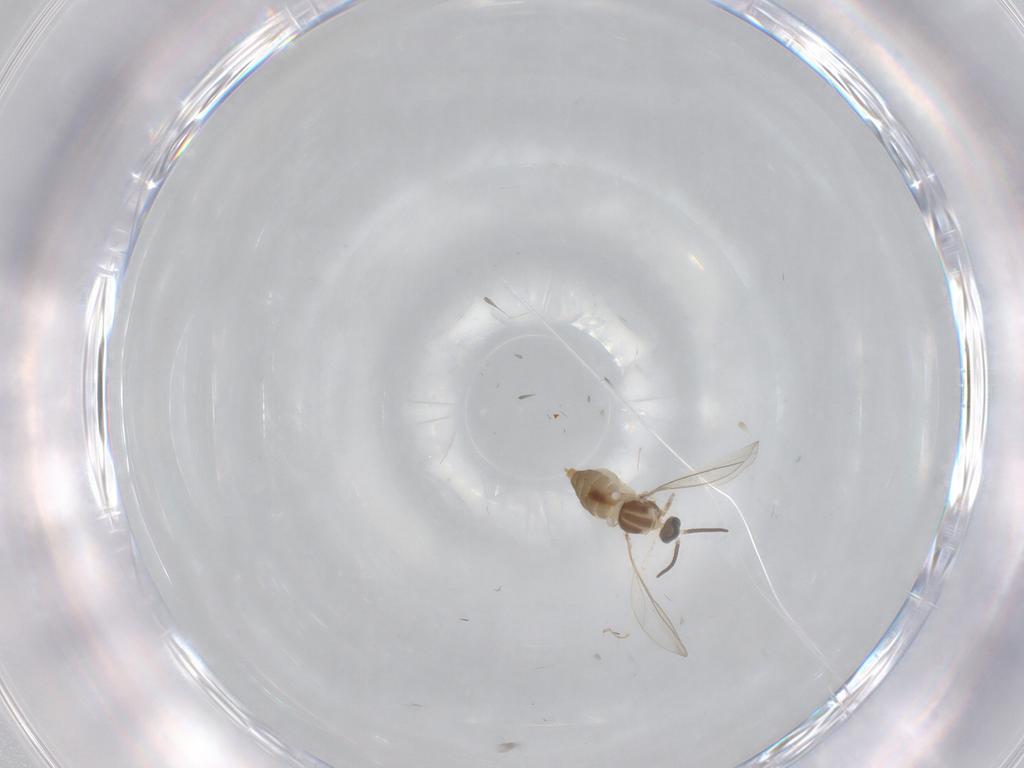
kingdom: Animalia
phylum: Arthropoda
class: Insecta
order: Diptera
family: Cecidomyiidae
